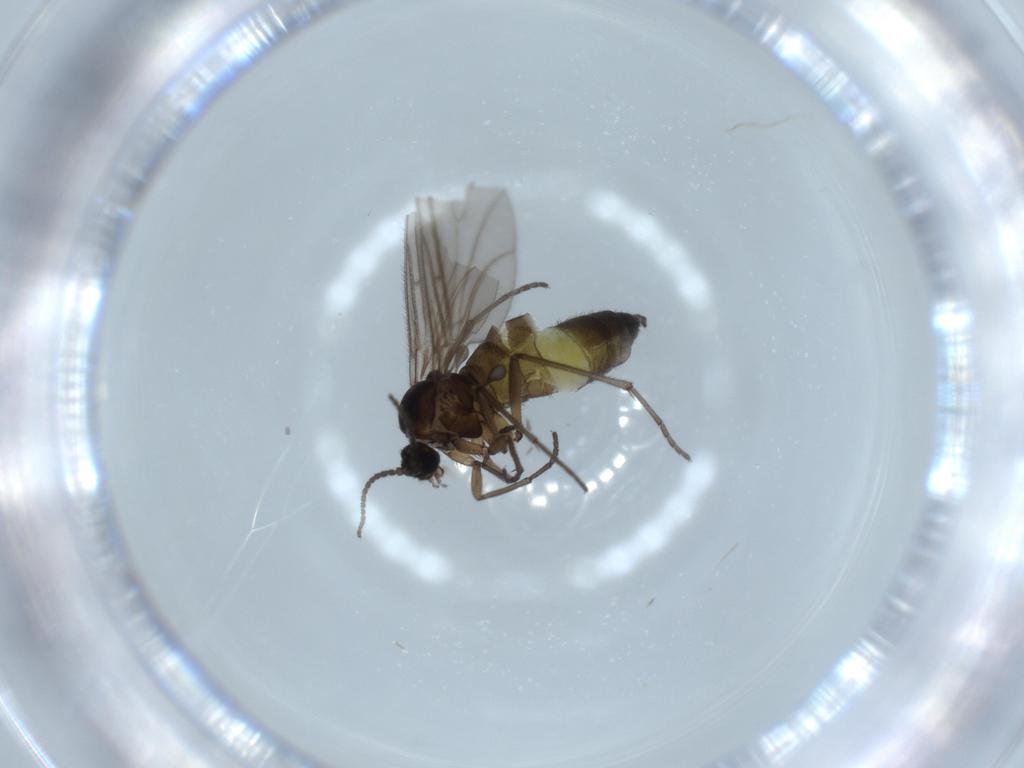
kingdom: Animalia
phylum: Arthropoda
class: Insecta
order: Diptera
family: Sciaridae
